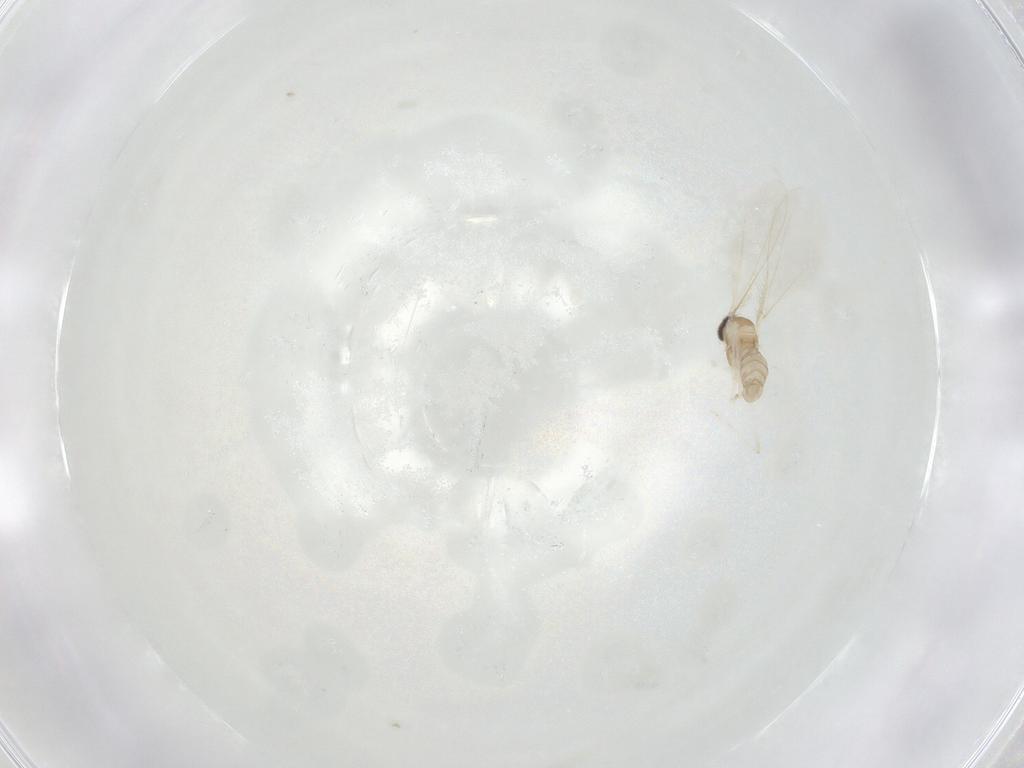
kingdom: Animalia
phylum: Arthropoda
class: Insecta
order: Diptera
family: Cecidomyiidae
